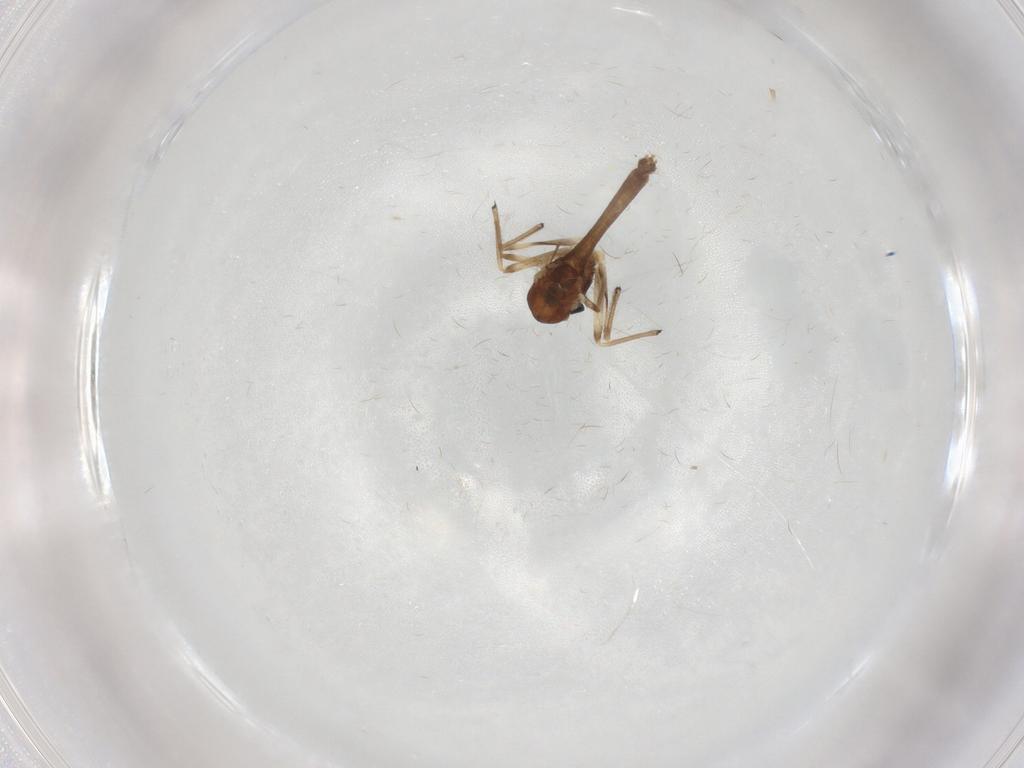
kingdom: Animalia
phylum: Arthropoda
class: Insecta
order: Diptera
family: Chironomidae
